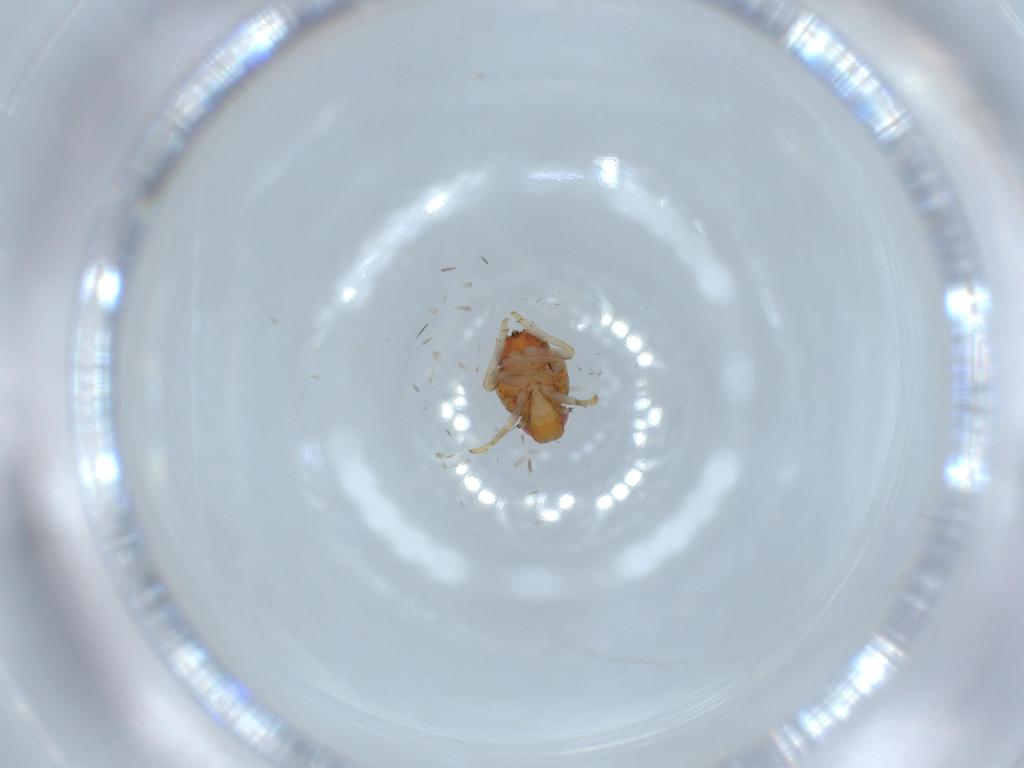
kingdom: Animalia
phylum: Arthropoda
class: Insecta
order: Hemiptera
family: Issidae
